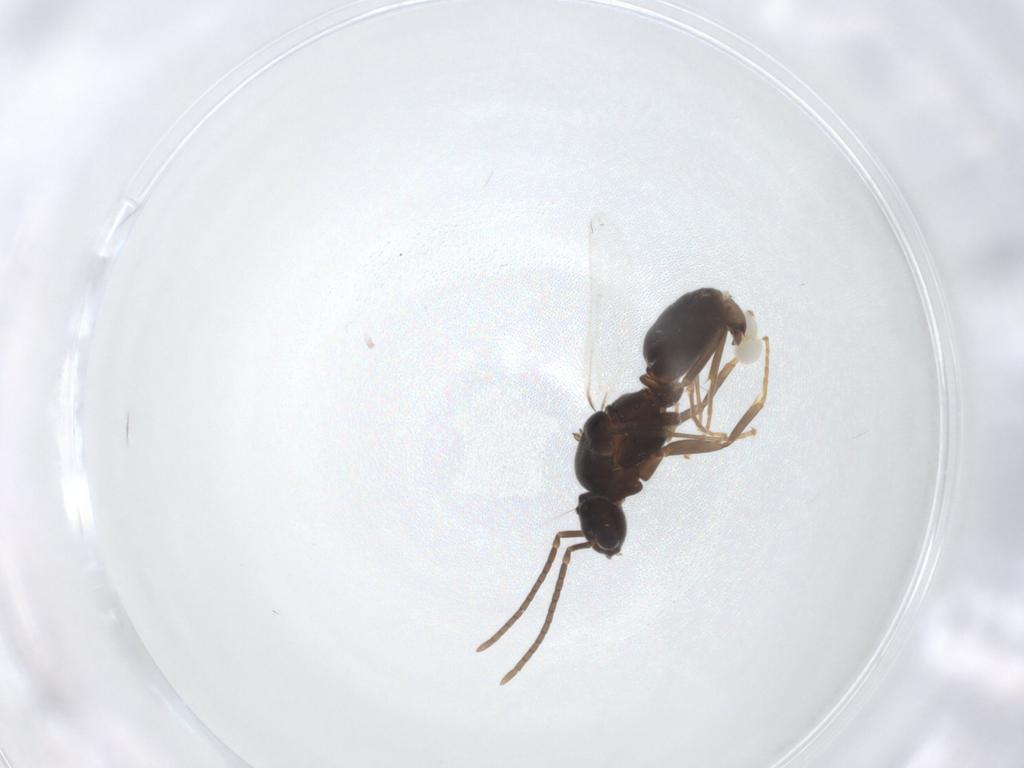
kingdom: Animalia
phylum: Arthropoda
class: Insecta
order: Hymenoptera
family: Formicidae
